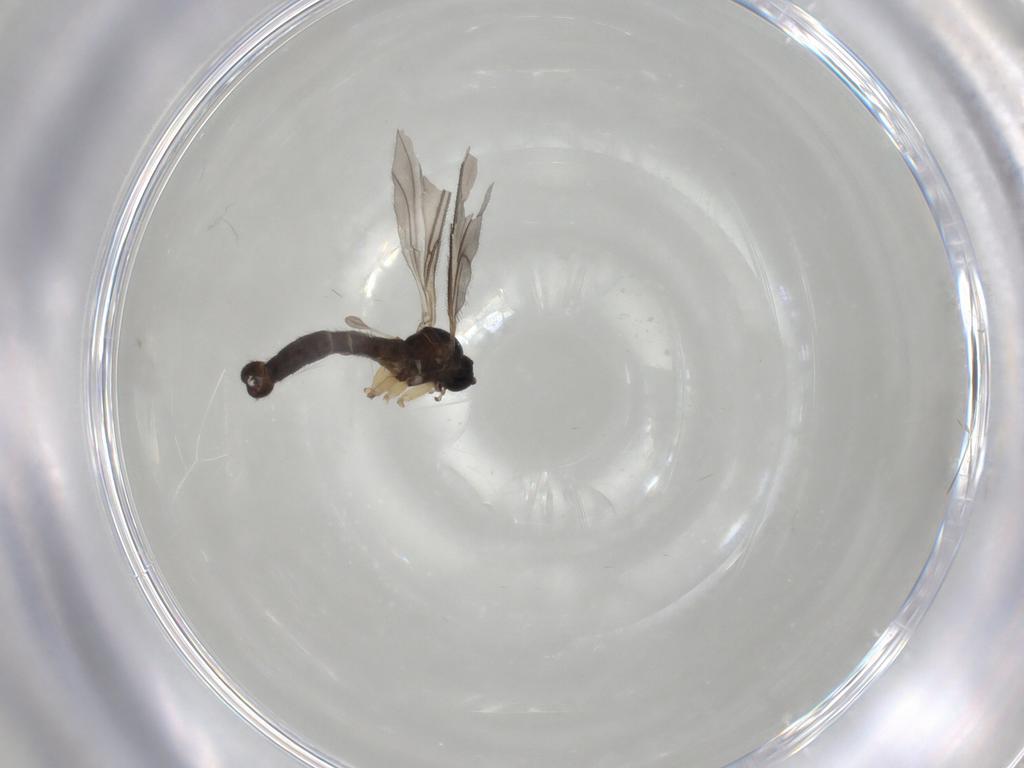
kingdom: Animalia
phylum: Arthropoda
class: Insecta
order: Diptera
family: Sciaridae
